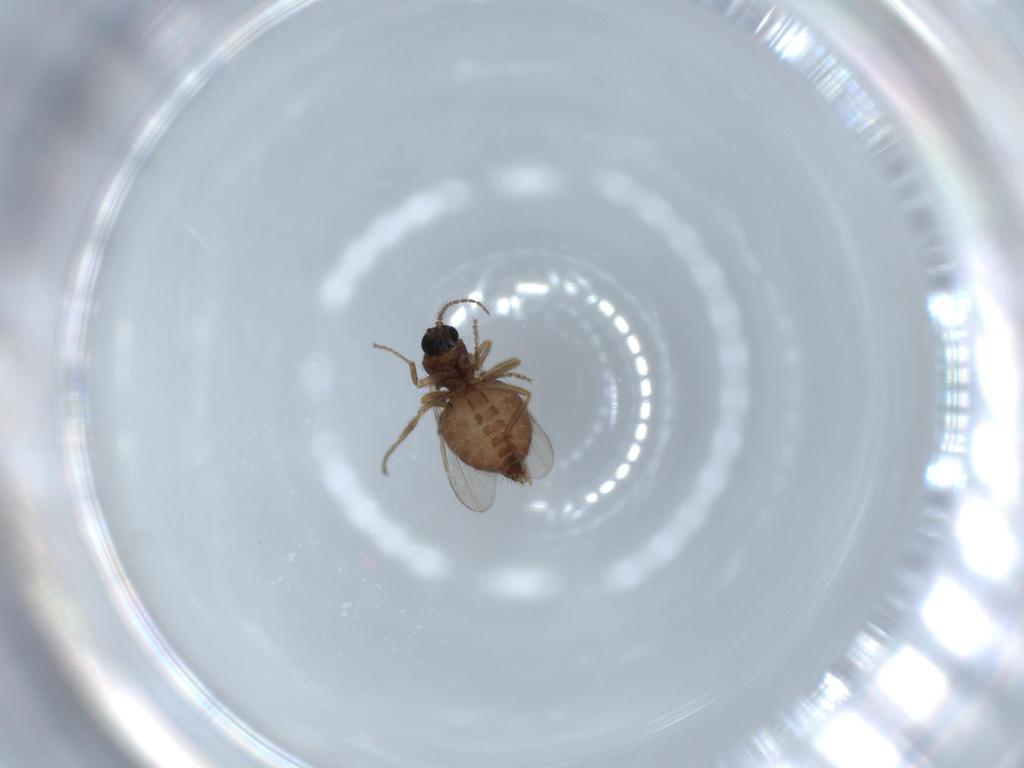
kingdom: Animalia
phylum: Arthropoda
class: Insecta
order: Diptera
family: Ceratopogonidae
